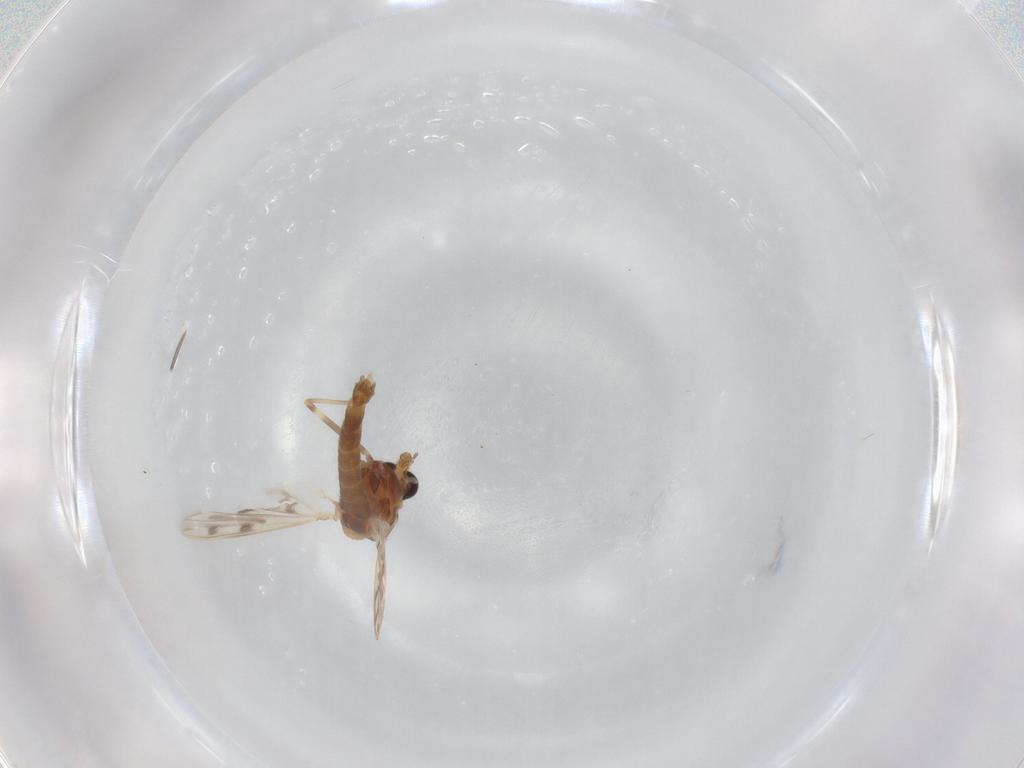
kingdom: Animalia
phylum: Arthropoda
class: Insecta
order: Diptera
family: Chironomidae
